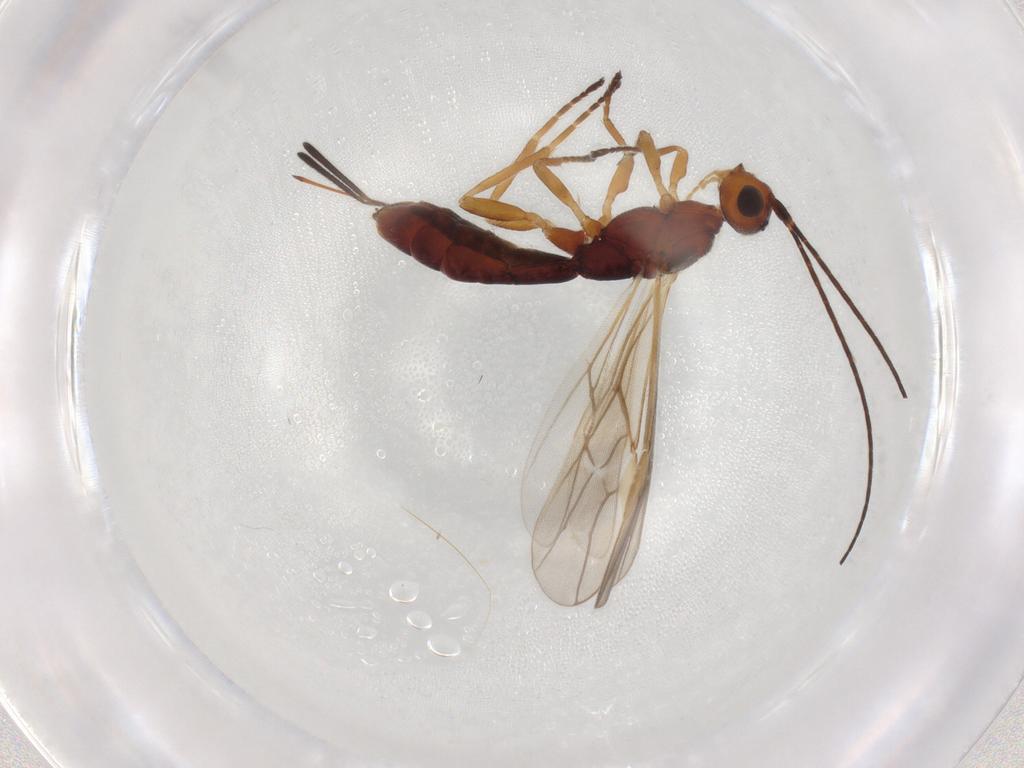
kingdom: Animalia
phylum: Arthropoda
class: Insecta
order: Hymenoptera
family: Braconidae
